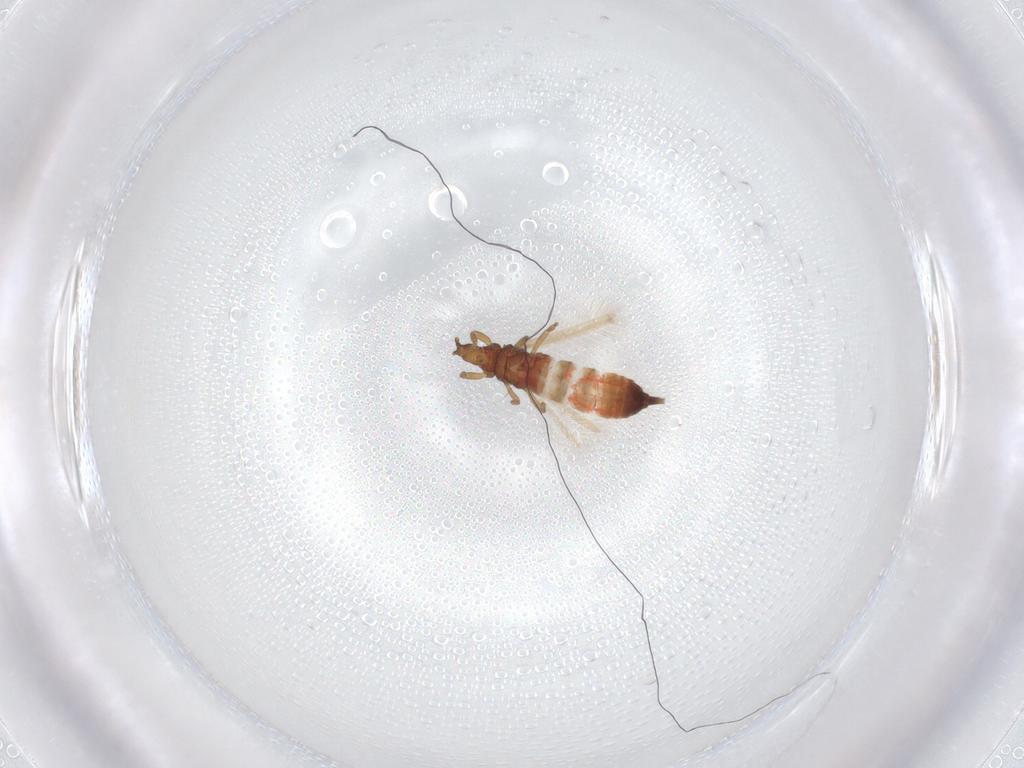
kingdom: Animalia
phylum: Arthropoda
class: Insecta
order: Thysanoptera
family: Phlaeothripidae
